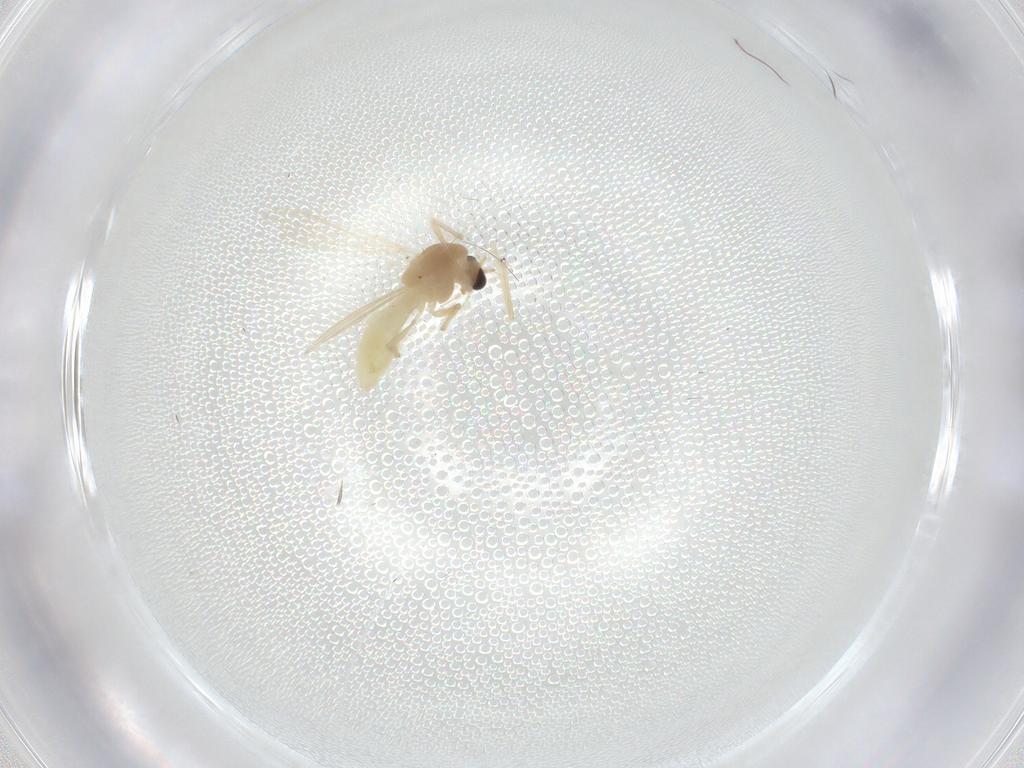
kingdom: Animalia
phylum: Arthropoda
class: Insecta
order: Diptera
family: Chironomidae
